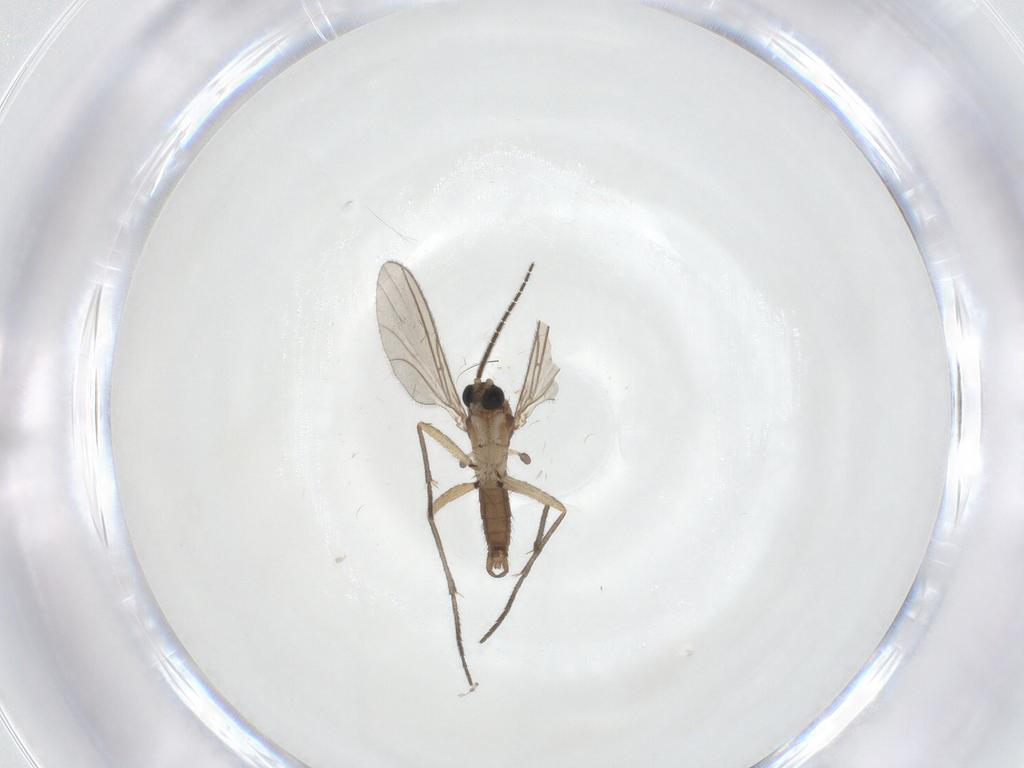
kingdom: Animalia
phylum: Arthropoda
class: Insecta
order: Diptera
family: Sciaridae
